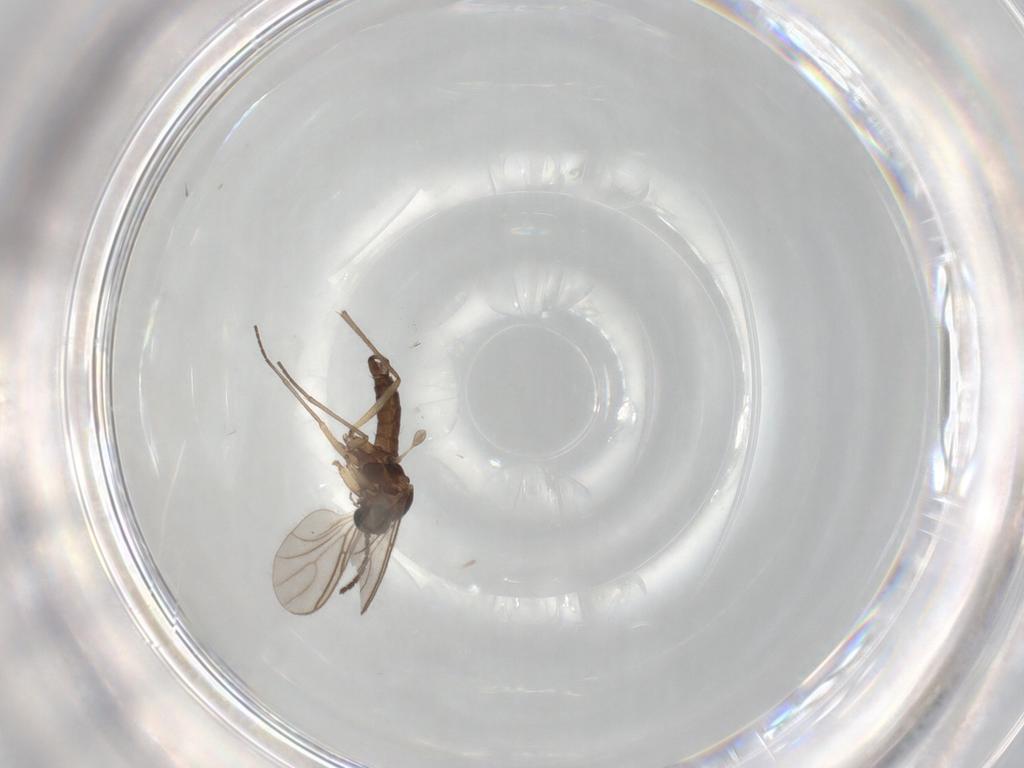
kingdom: Animalia
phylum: Arthropoda
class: Insecta
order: Diptera
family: Sciaridae
